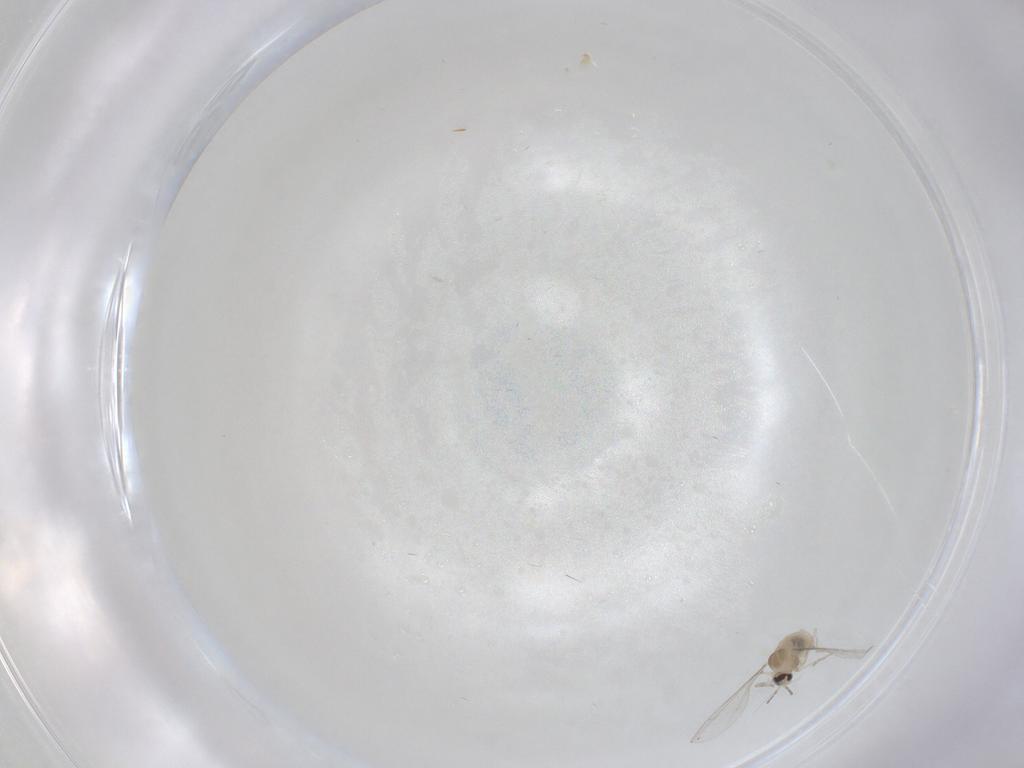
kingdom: Animalia
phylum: Arthropoda
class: Insecta
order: Diptera
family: Cecidomyiidae
